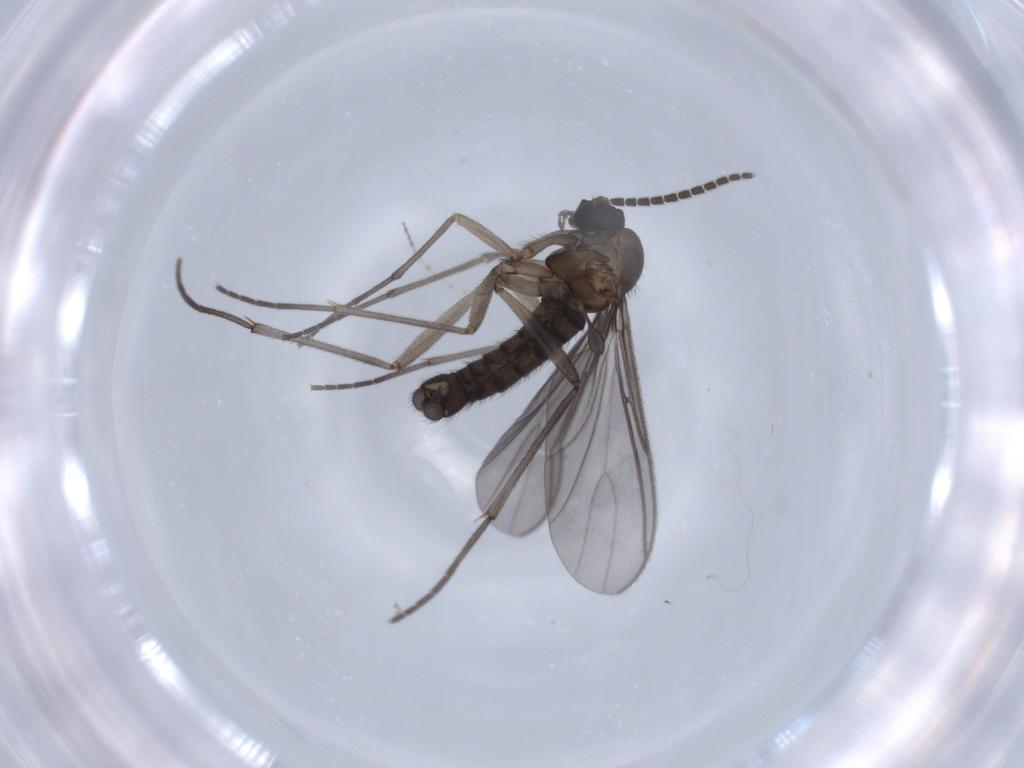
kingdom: Animalia
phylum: Arthropoda
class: Insecta
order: Diptera
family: Sciaridae
